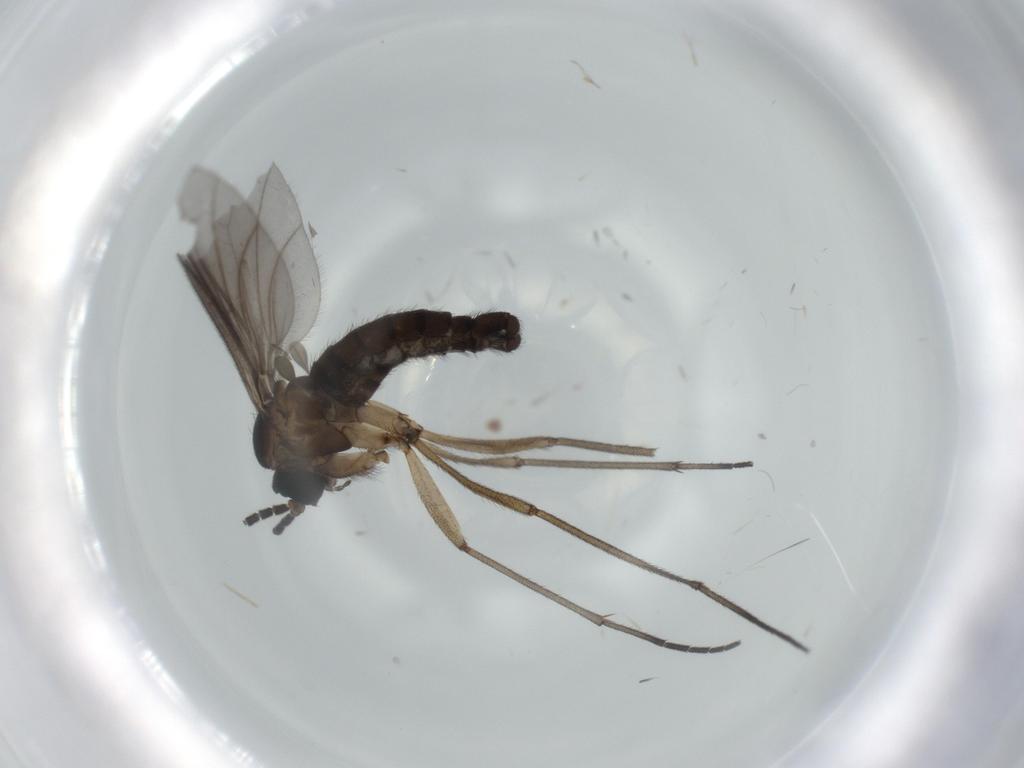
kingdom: Animalia
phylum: Arthropoda
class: Insecta
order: Diptera
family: Phoridae
